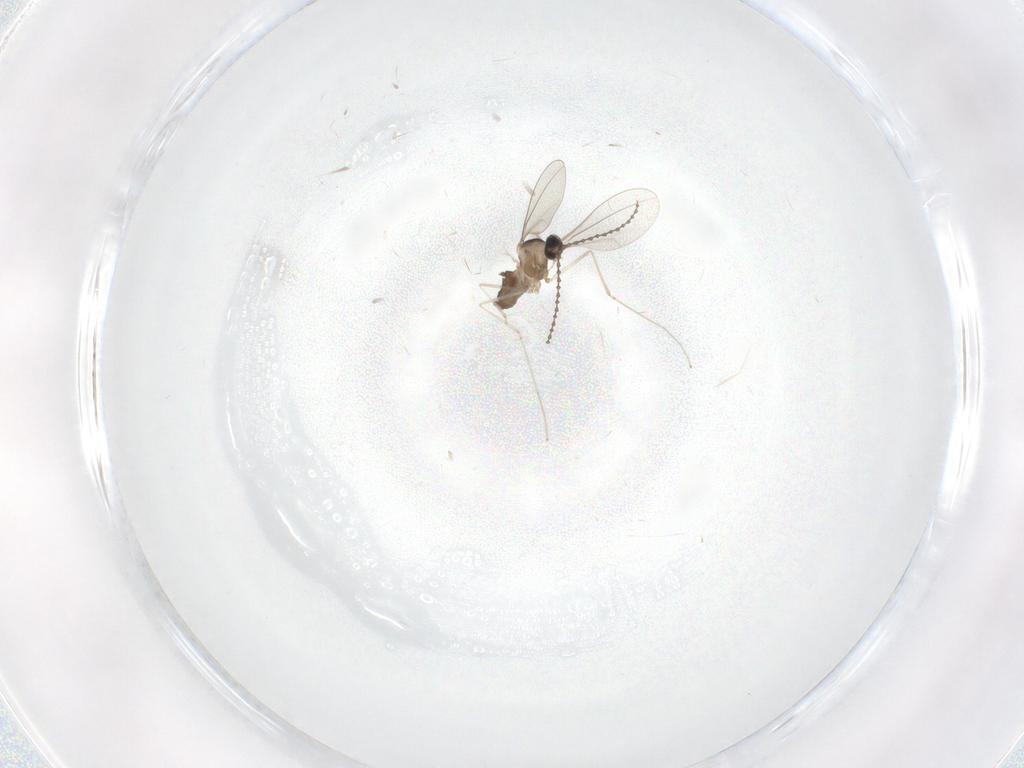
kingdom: Animalia
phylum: Arthropoda
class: Insecta
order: Diptera
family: Cecidomyiidae
